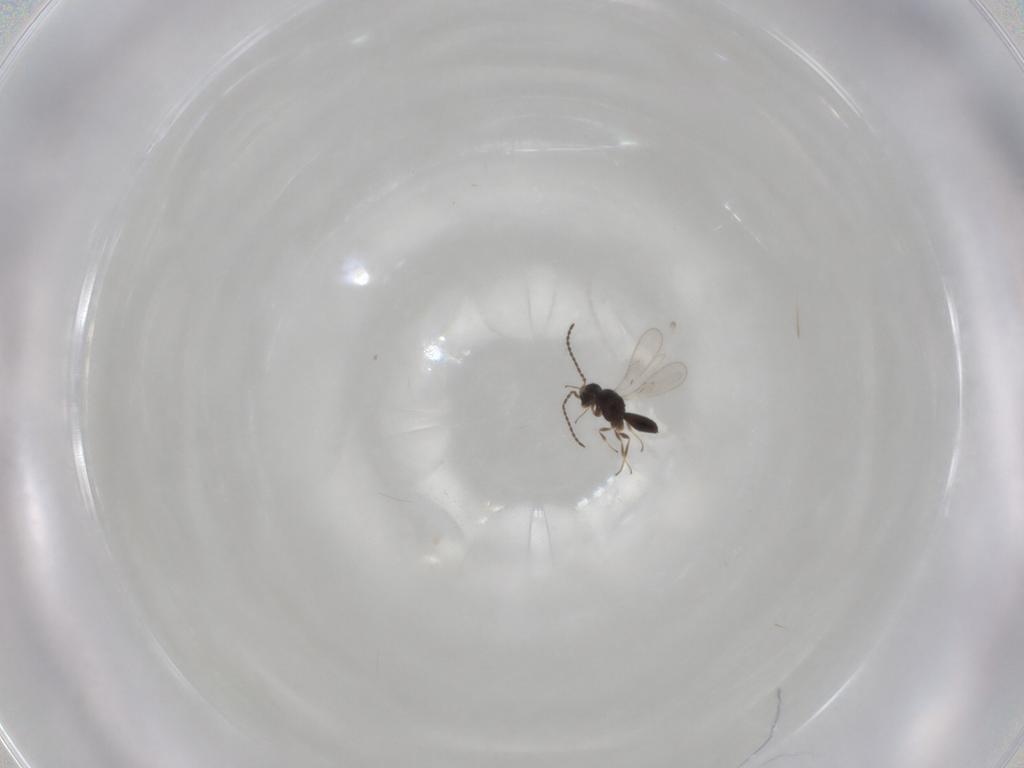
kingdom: Animalia
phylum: Arthropoda
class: Insecta
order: Hymenoptera
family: Scelionidae
